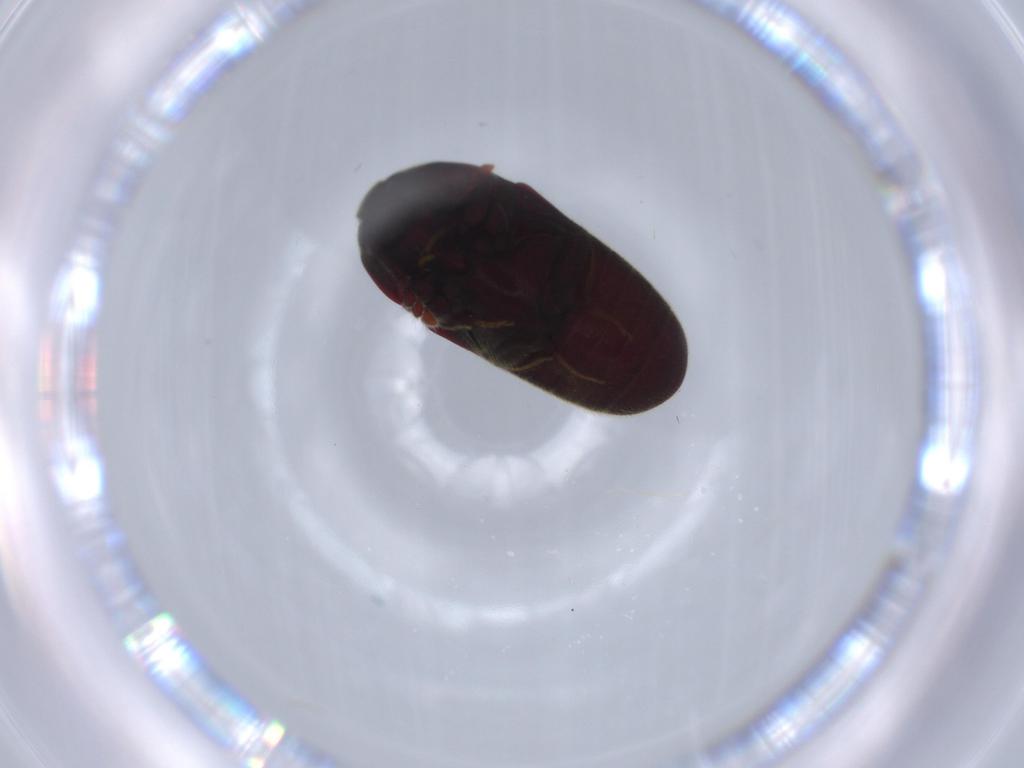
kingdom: Animalia
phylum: Arthropoda
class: Insecta
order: Coleoptera
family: Throscidae
